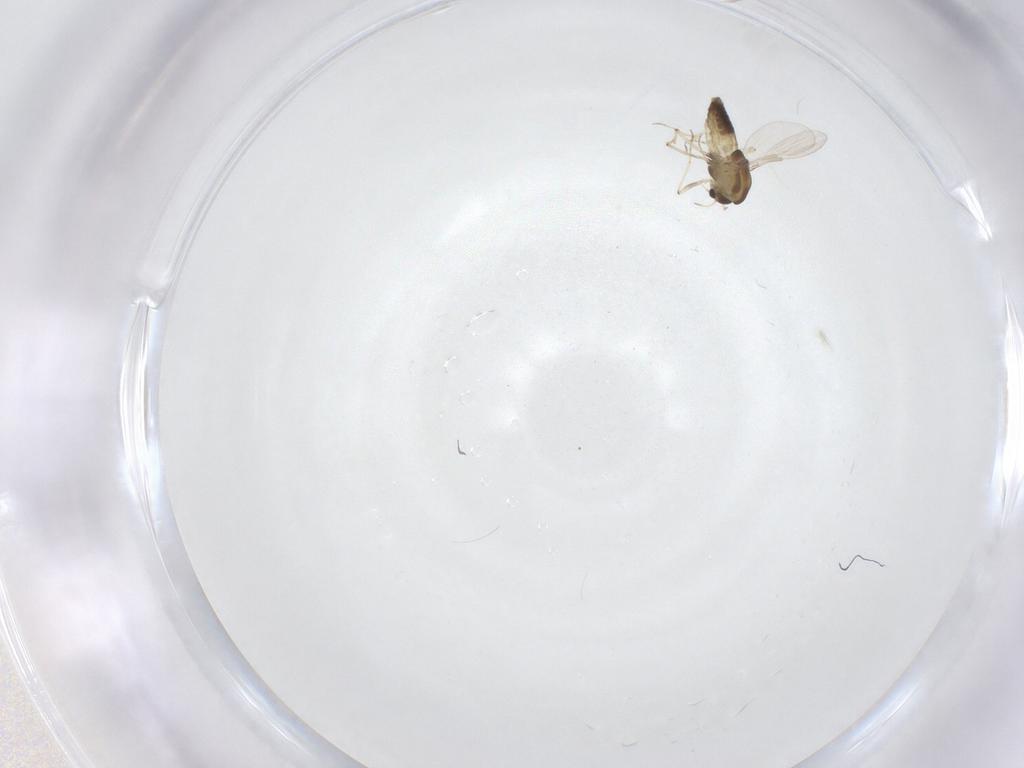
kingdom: Animalia
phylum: Arthropoda
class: Insecta
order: Diptera
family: Chironomidae
